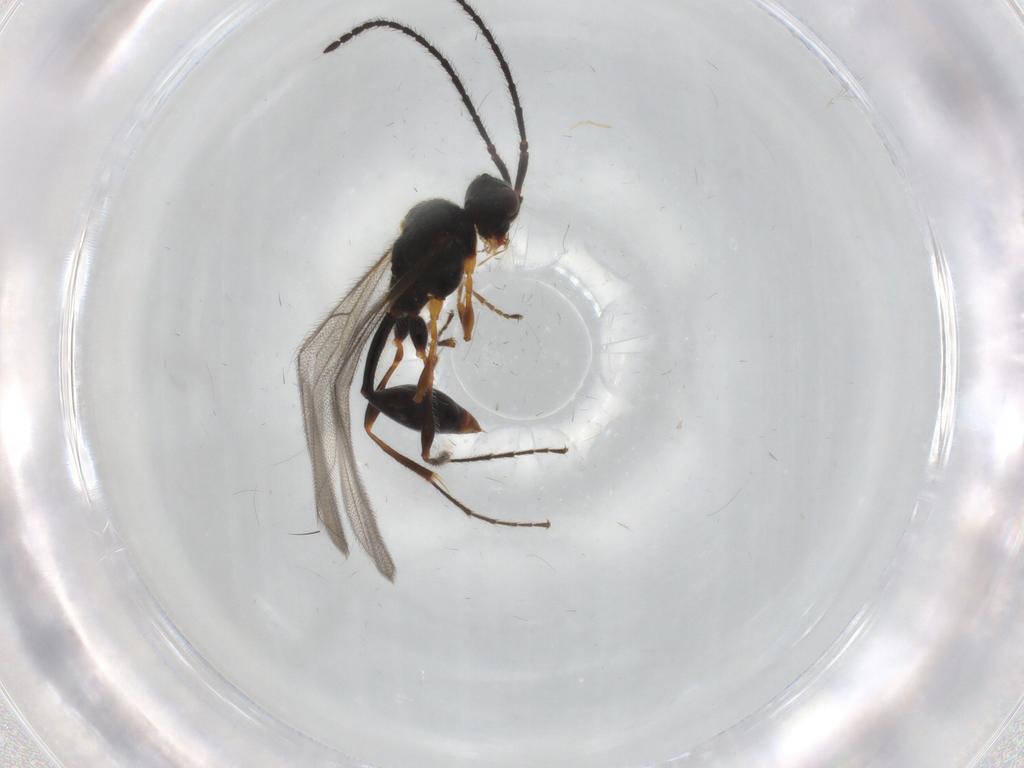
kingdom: Animalia
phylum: Arthropoda
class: Insecta
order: Hymenoptera
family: Diapriidae
